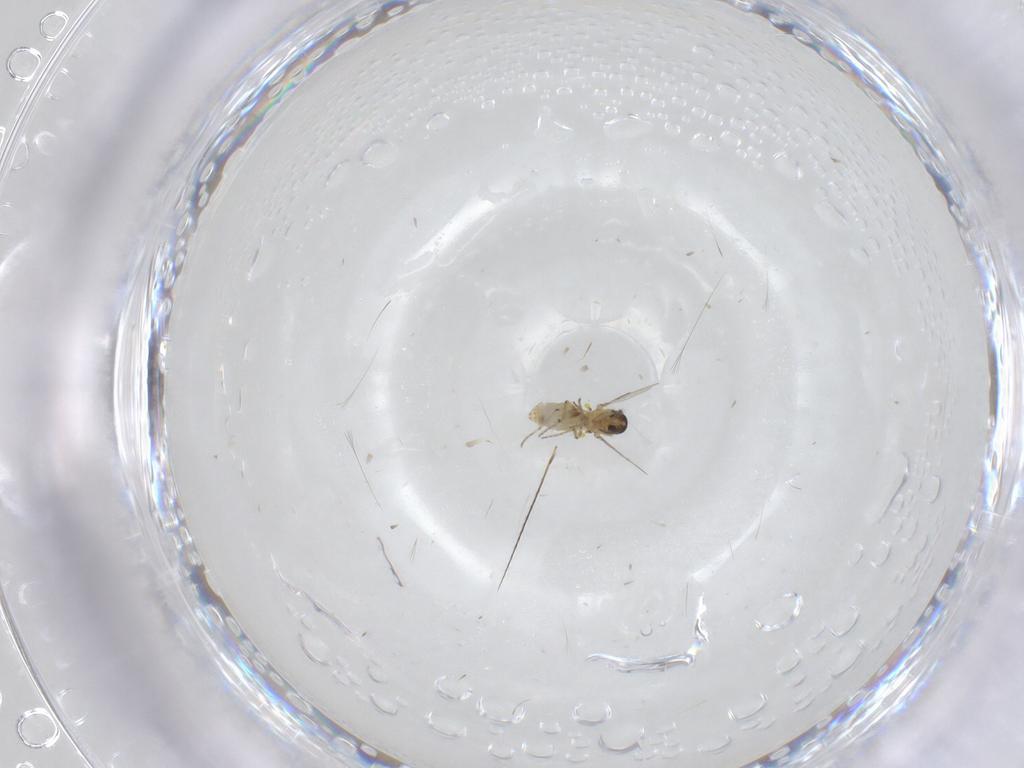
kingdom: Animalia
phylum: Arthropoda
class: Insecta
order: Diptera
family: Ceratopogonidae
